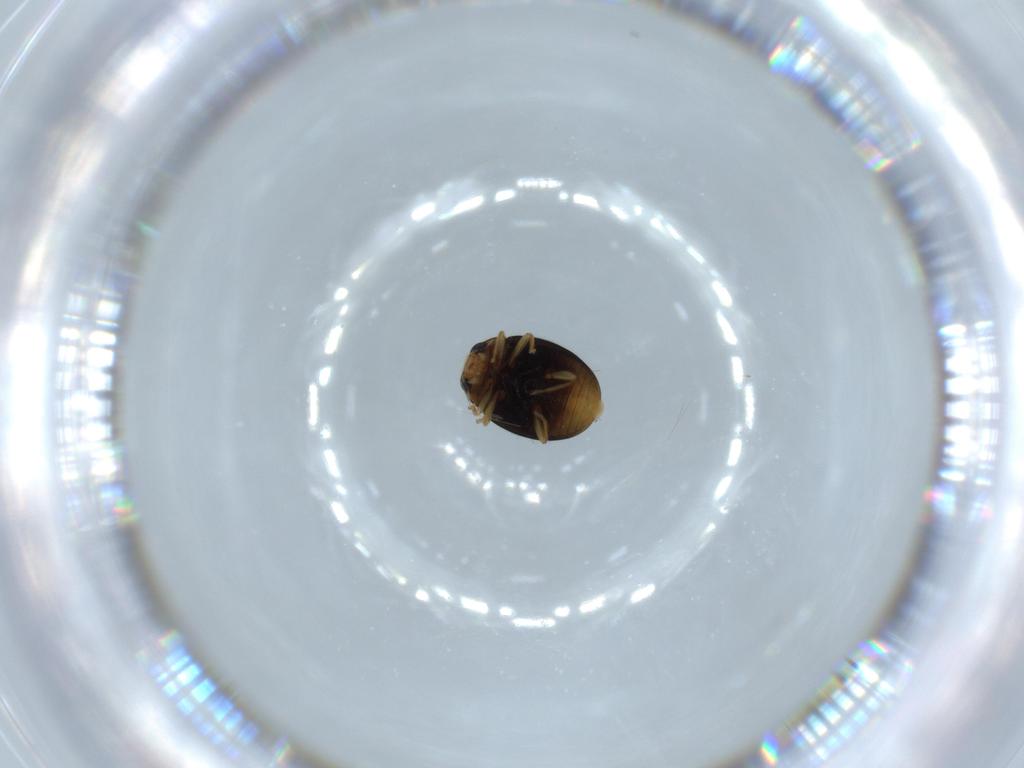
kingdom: Animalia
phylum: Arthropoda
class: Insecta
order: Coleoptera
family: Coccinellidae
